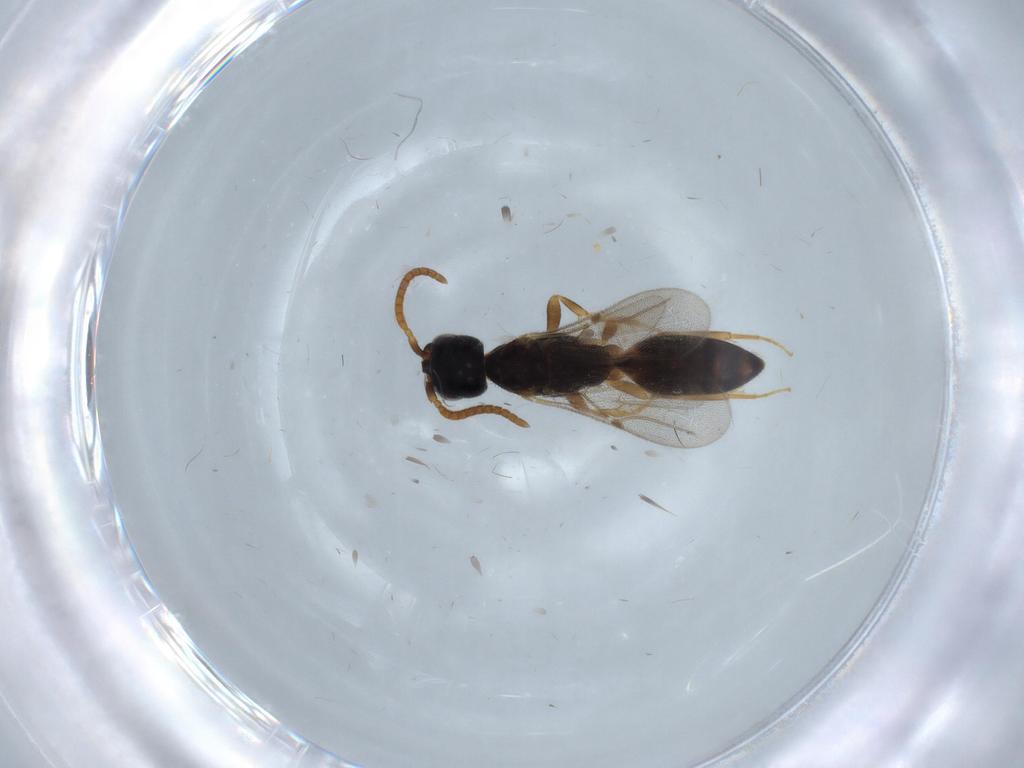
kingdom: Animalia
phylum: Arthropoda
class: Insecta
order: Hymenoptera
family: Bethylidae
